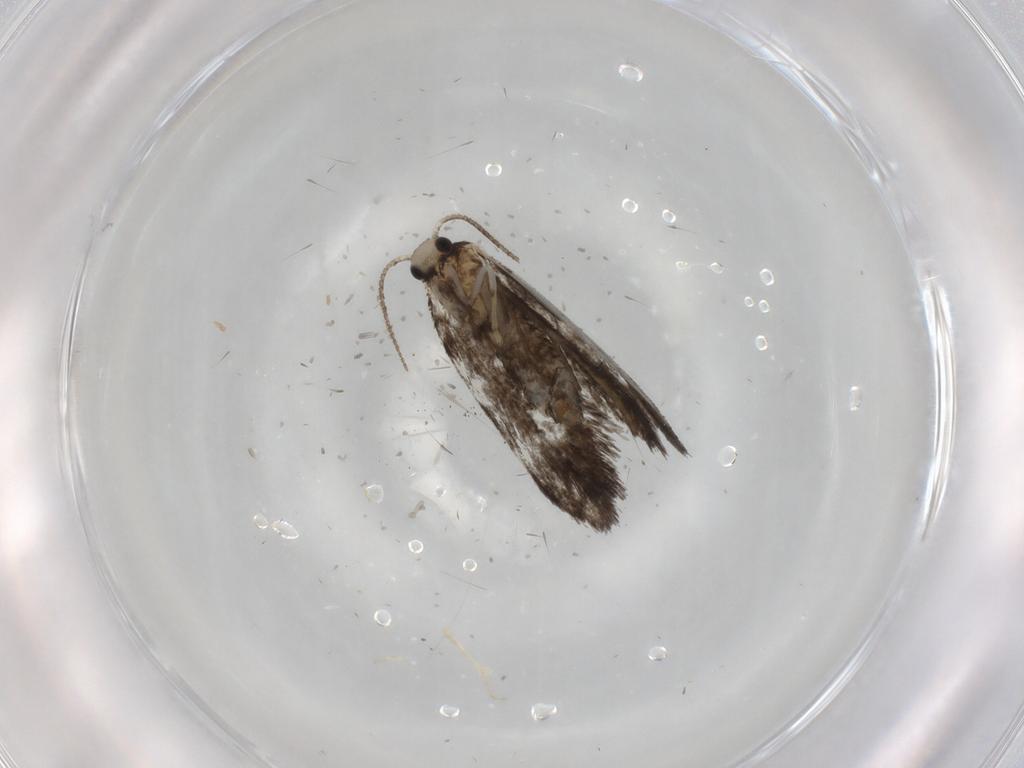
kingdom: Animalia
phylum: Arthropoda
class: Insecta
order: Lepidoptera
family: Psychidae
